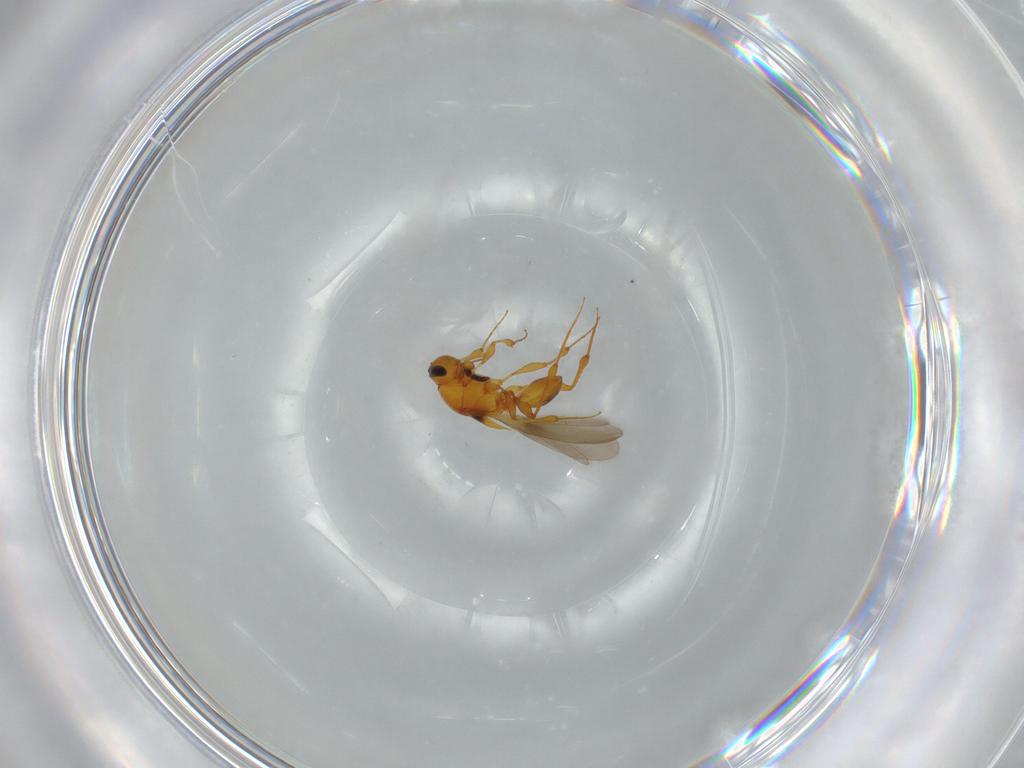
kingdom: Animalia
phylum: Arthropoda
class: Insecta
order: Hymenoptera
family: Platygastridae
